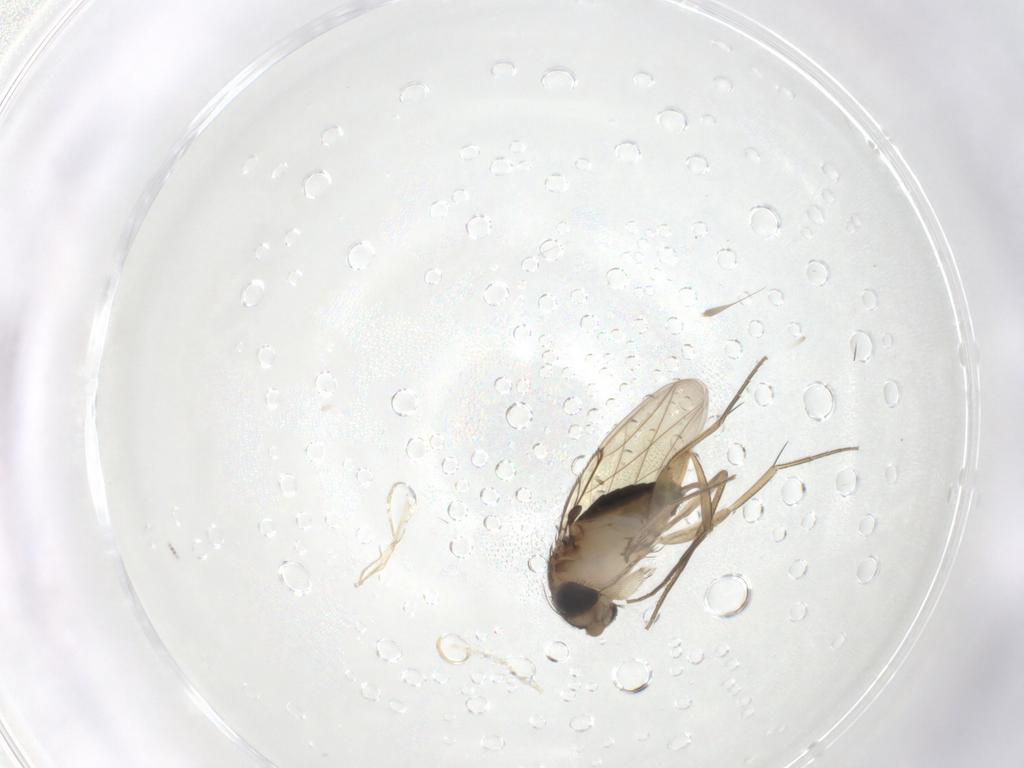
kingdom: Animalia
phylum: Arthropoda
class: Insecta
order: Diptera
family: Phoridae
